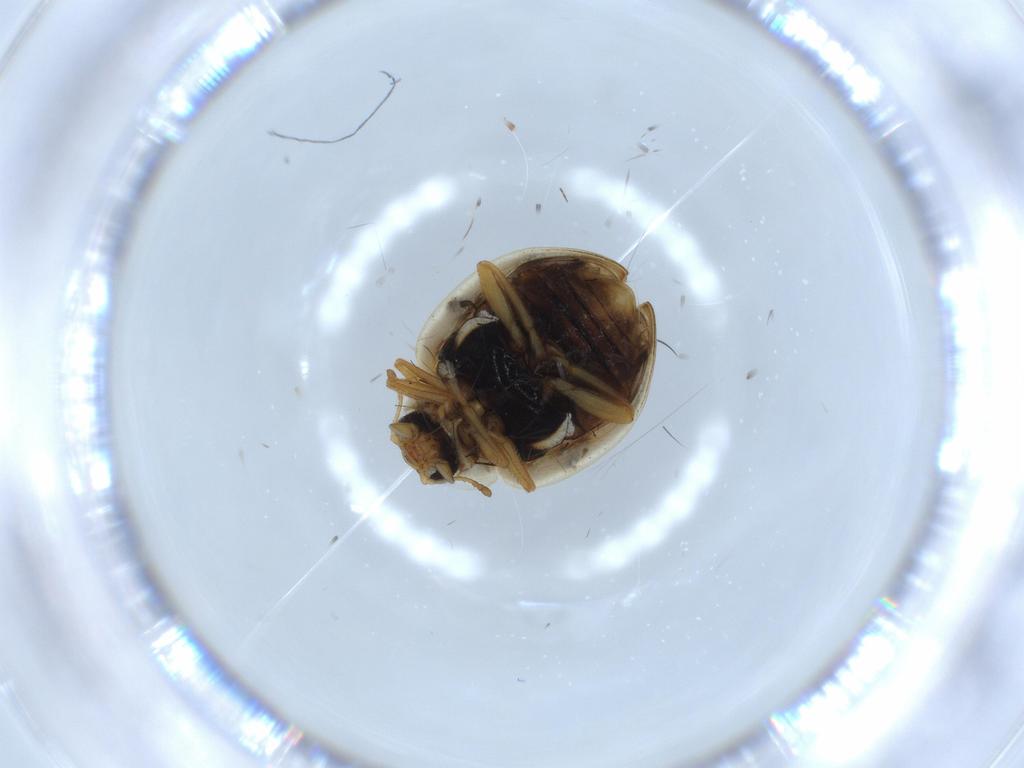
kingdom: Animalia
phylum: Arthropoda
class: Insecta
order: Coleoptera
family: Coccinellidae
